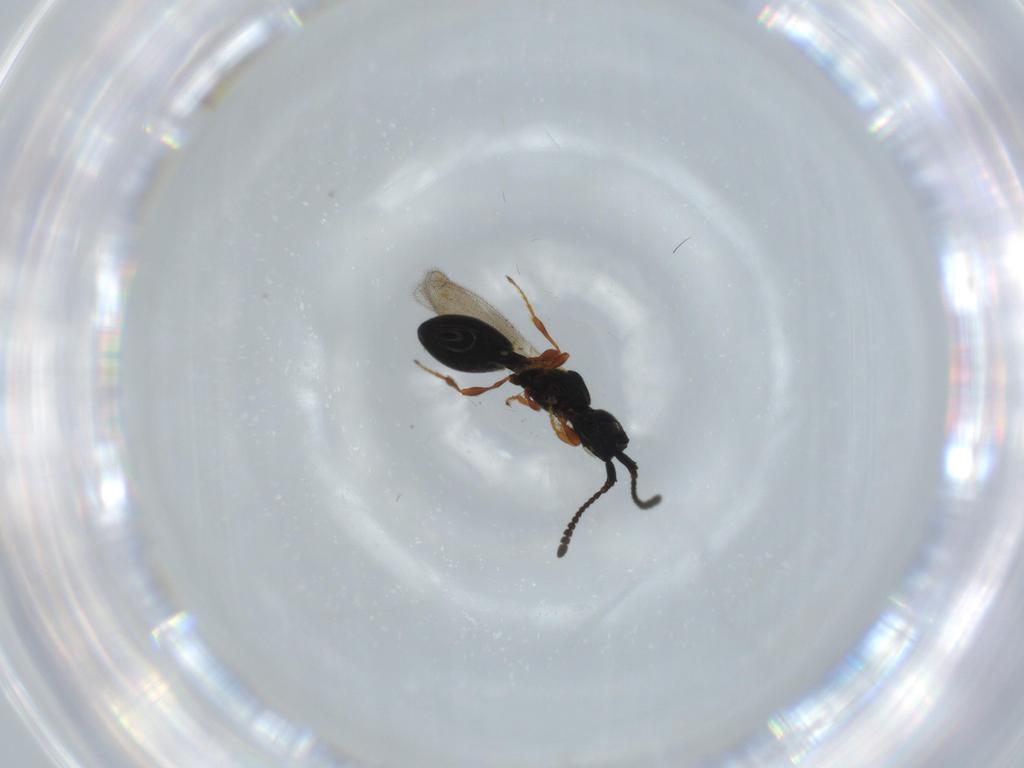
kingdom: Animalia
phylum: Arthropoda
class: Insecta
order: Hymenoptera
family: Diapriidae
